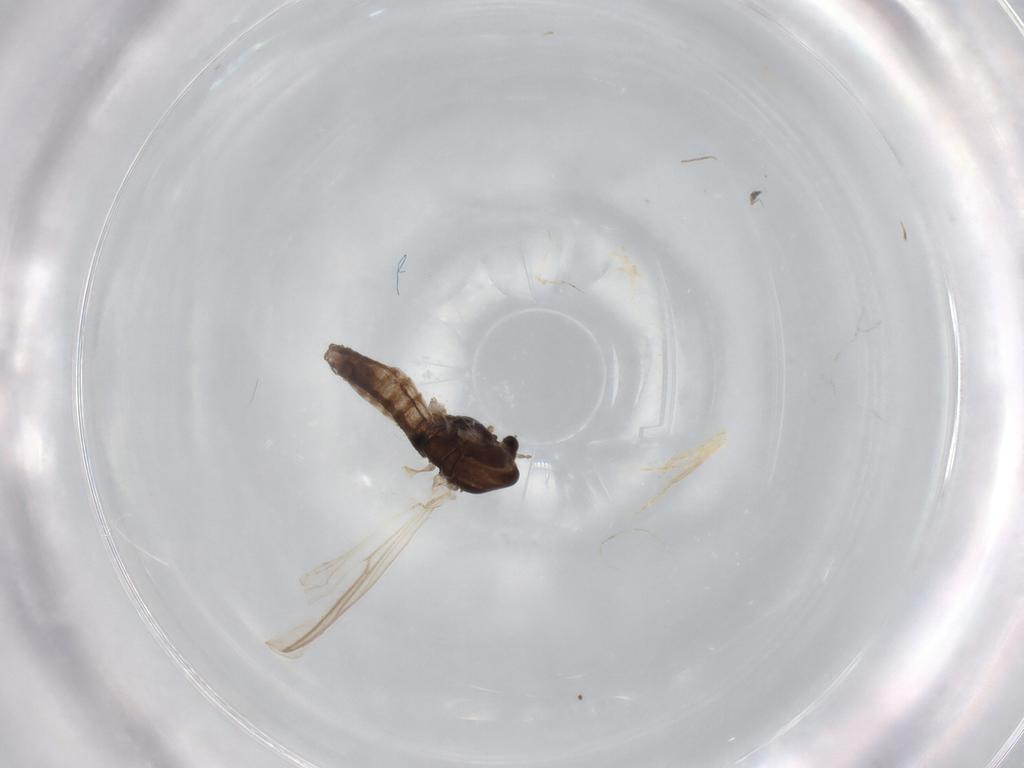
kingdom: Animalia
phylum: Arthropoda
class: Insecta
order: Diptera
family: Chironomidae
